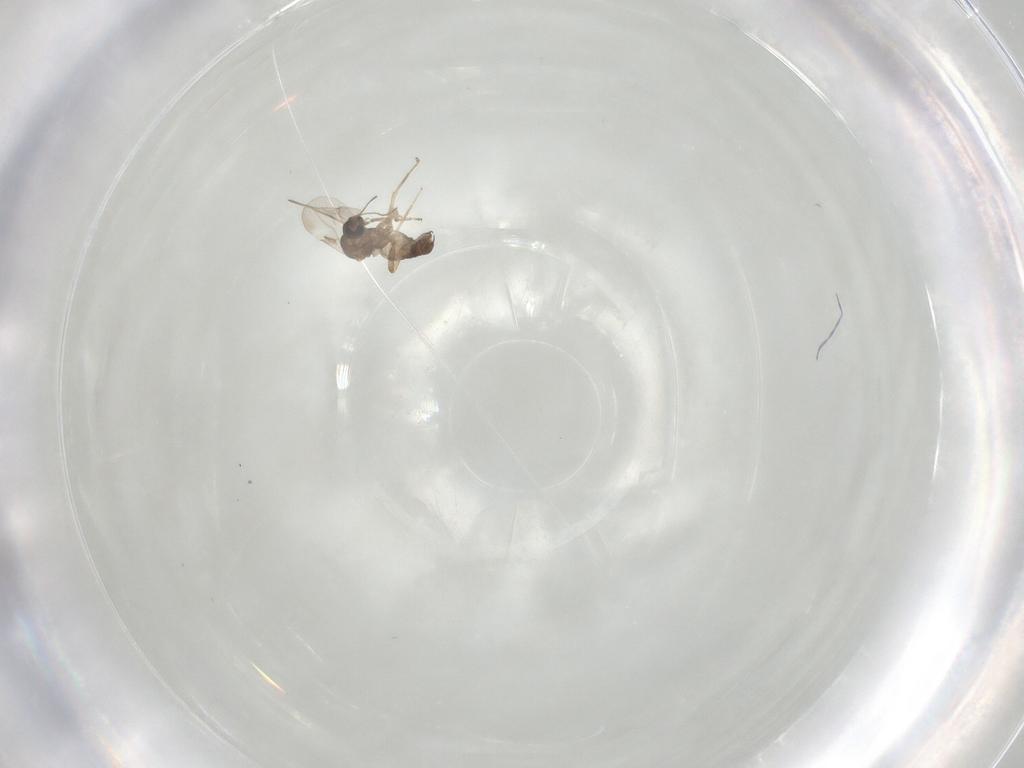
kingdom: Animalia
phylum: Arthropoda
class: Insecta
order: Diptera
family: Ceratopogonidae
